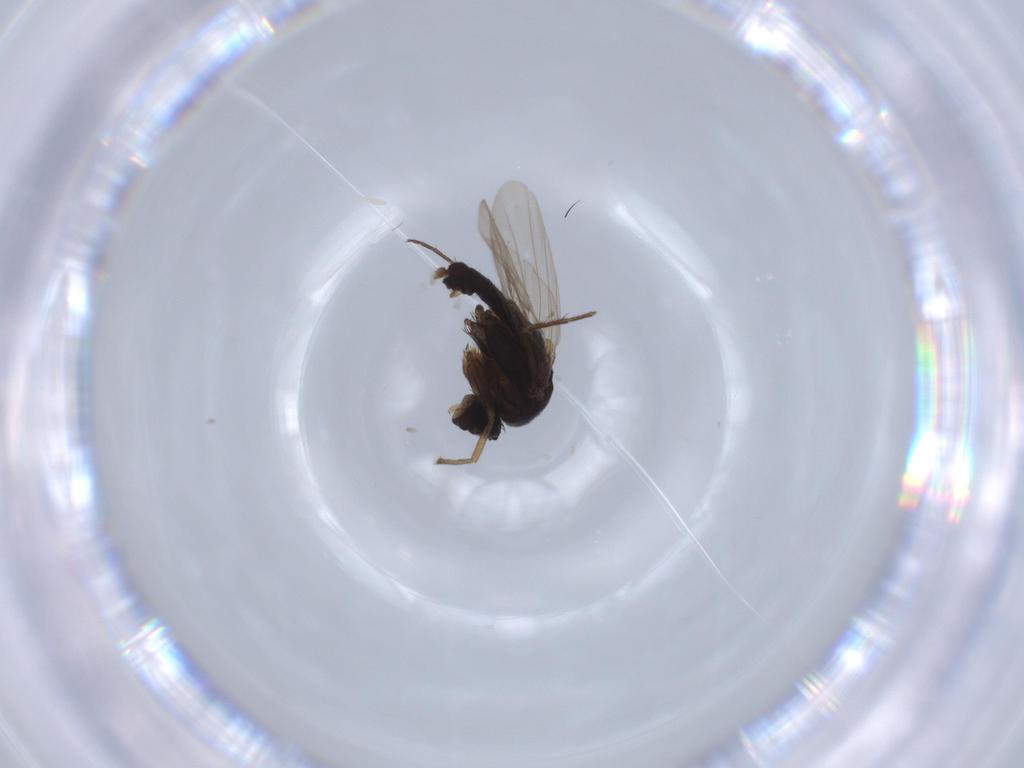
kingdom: Animalia
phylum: Arthropoda
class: Insecta
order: Diptera
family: Phoridae
